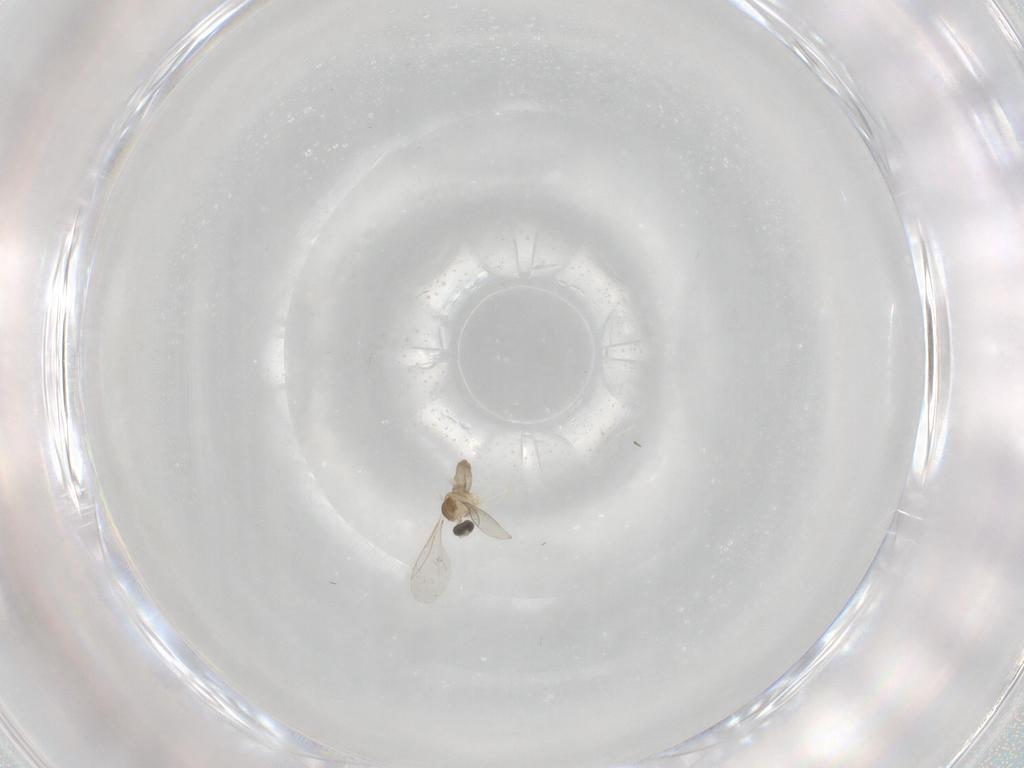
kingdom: Animalia
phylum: Arthropoda
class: Insecta
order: Diptera
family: Cecidomyiidae
